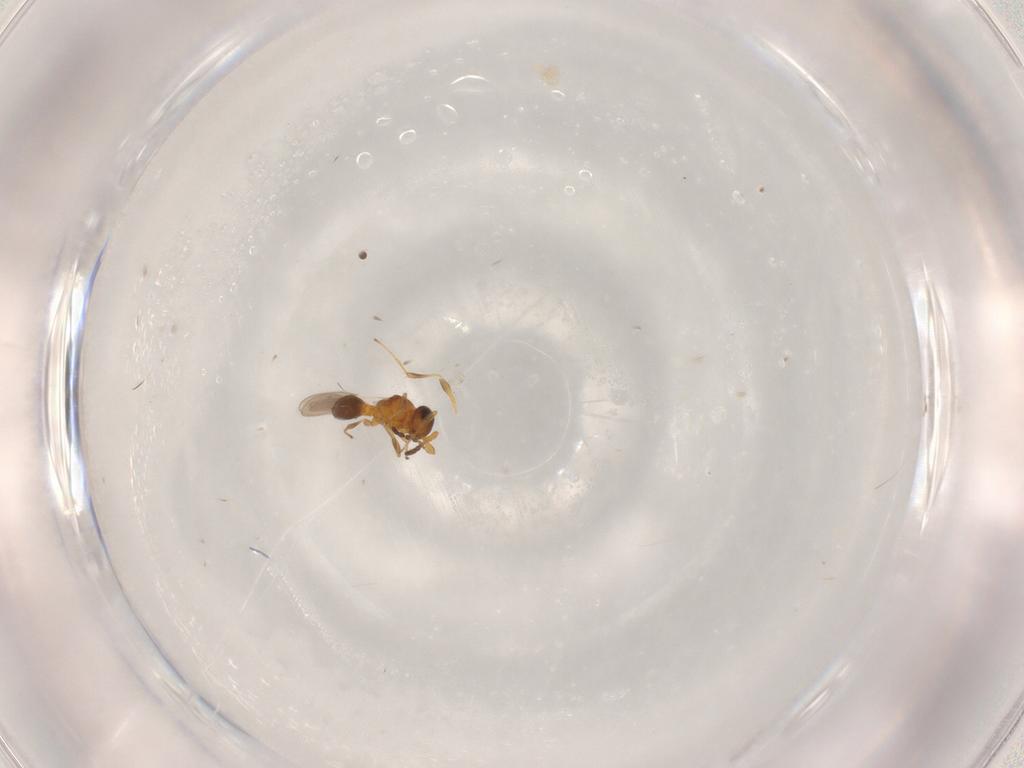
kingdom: Animalia
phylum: Arthropoda
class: Insecta
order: Hymenoptera
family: Platygastridae
